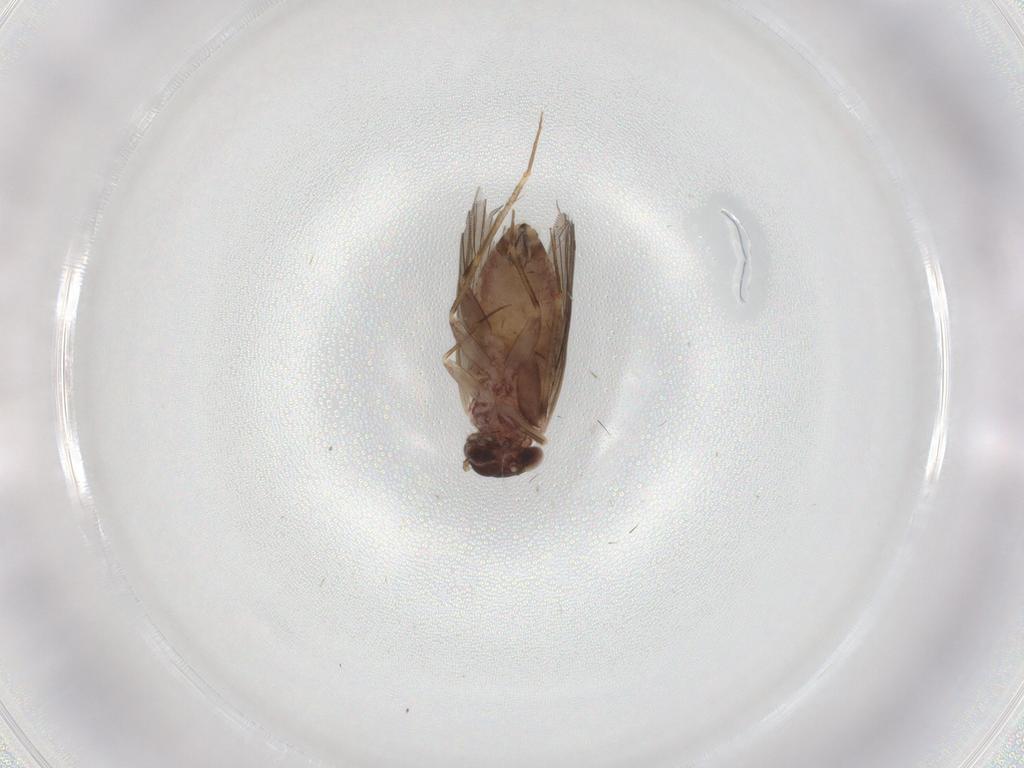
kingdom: Animalia
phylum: Arthropoda
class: Insecta
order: Psocodea
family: Lepidopsocidae
